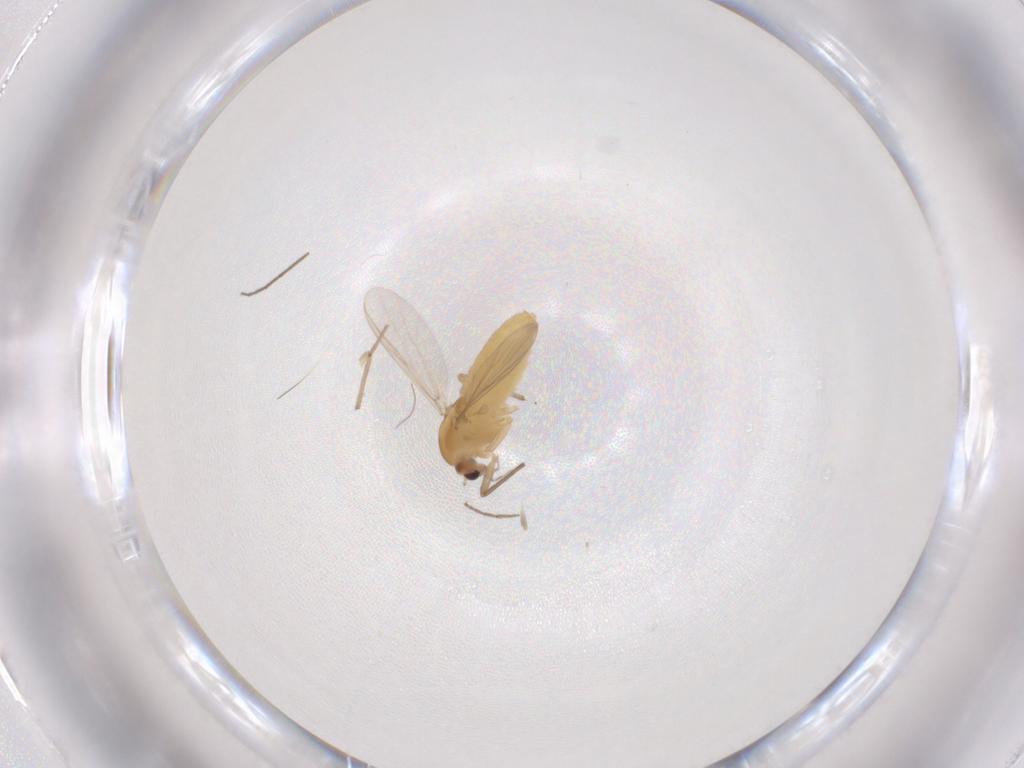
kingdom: Animalia
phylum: Arthropoda
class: Insecta
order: Diptera
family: Chironomidae
